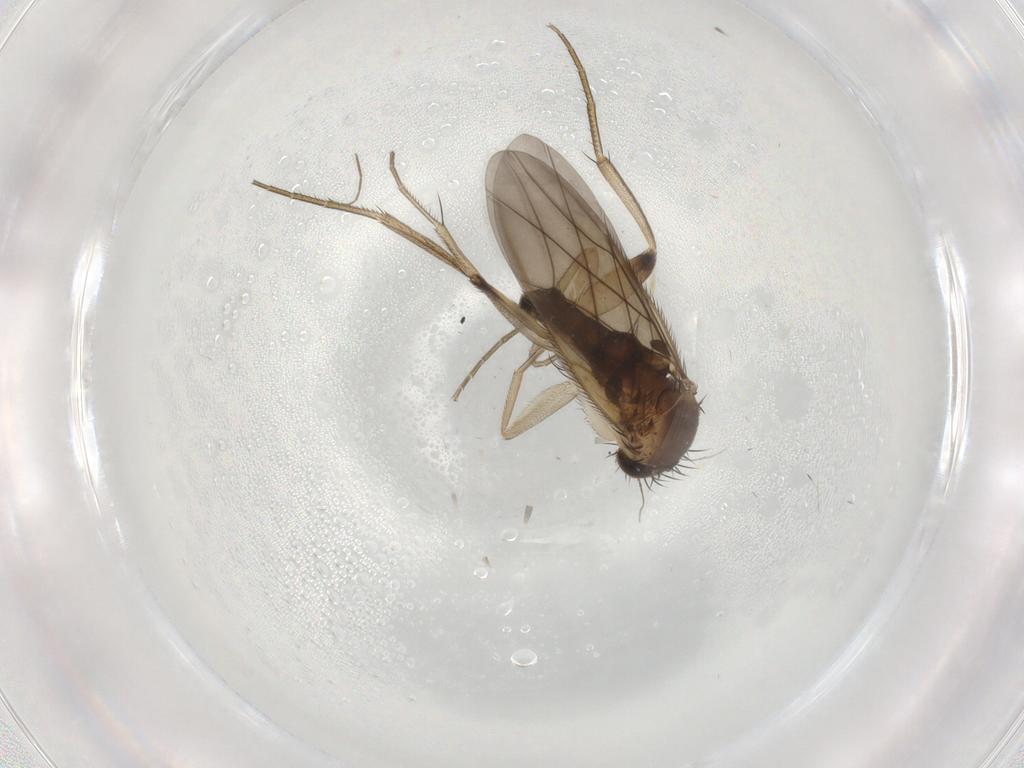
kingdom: Animalia
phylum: Arthropoda
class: Insecta
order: Diptera
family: Phoridae
